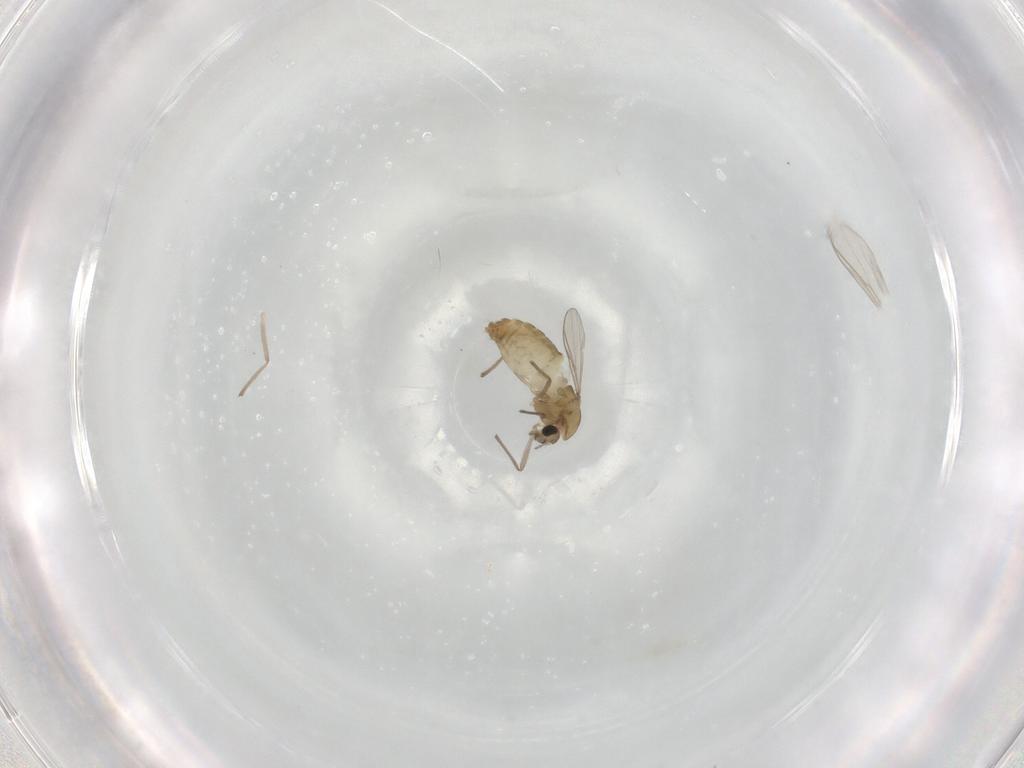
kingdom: Animalia
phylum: Arthropoda
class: Insecta
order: Diptera
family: Chironomidae
